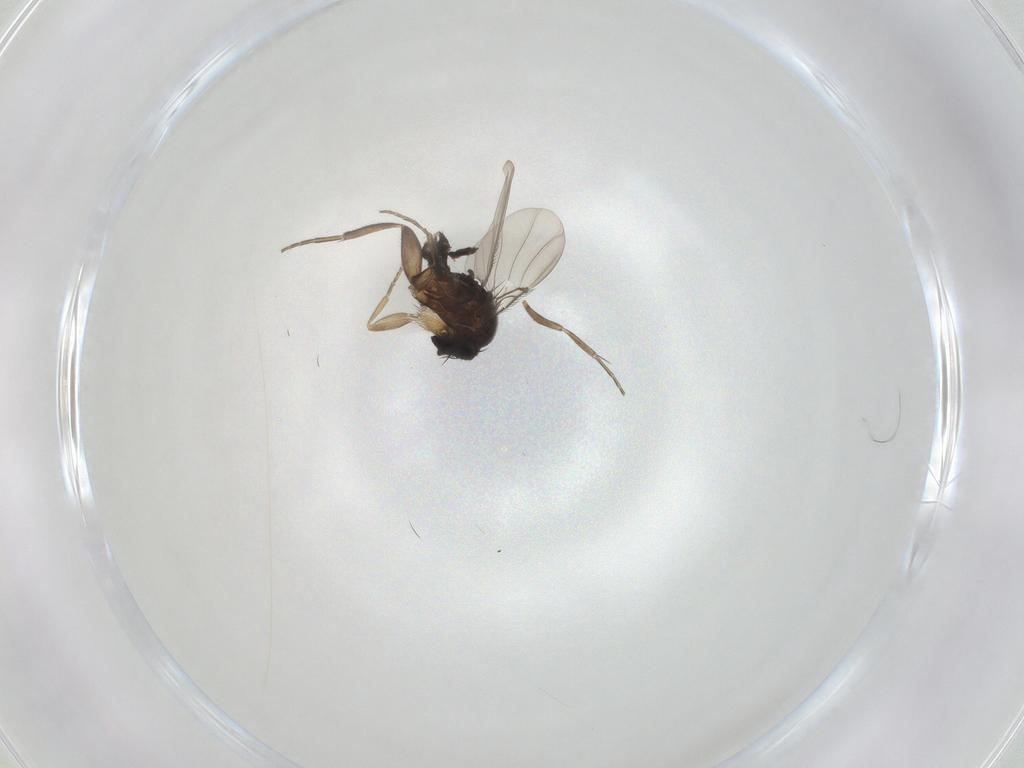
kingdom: Animalia
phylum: Arthropoda
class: Insecta
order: Diptera
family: Phoridae
